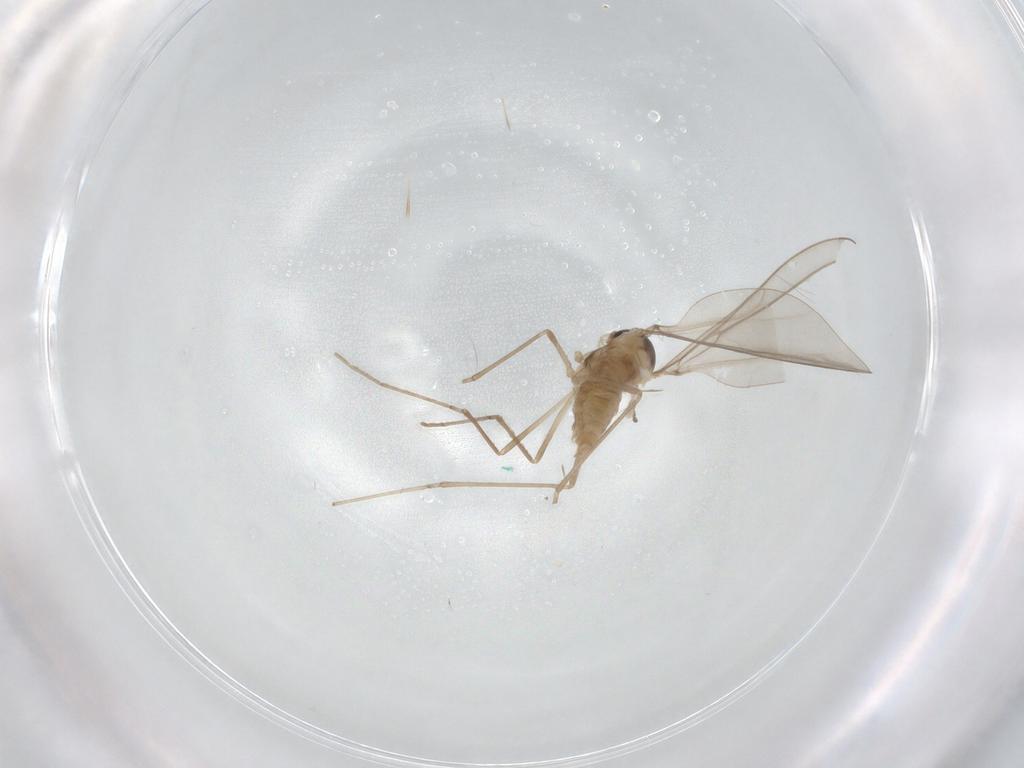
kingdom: Animalia
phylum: Arthropoda
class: Insecta
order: Diptera
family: Cecidomyiidae
